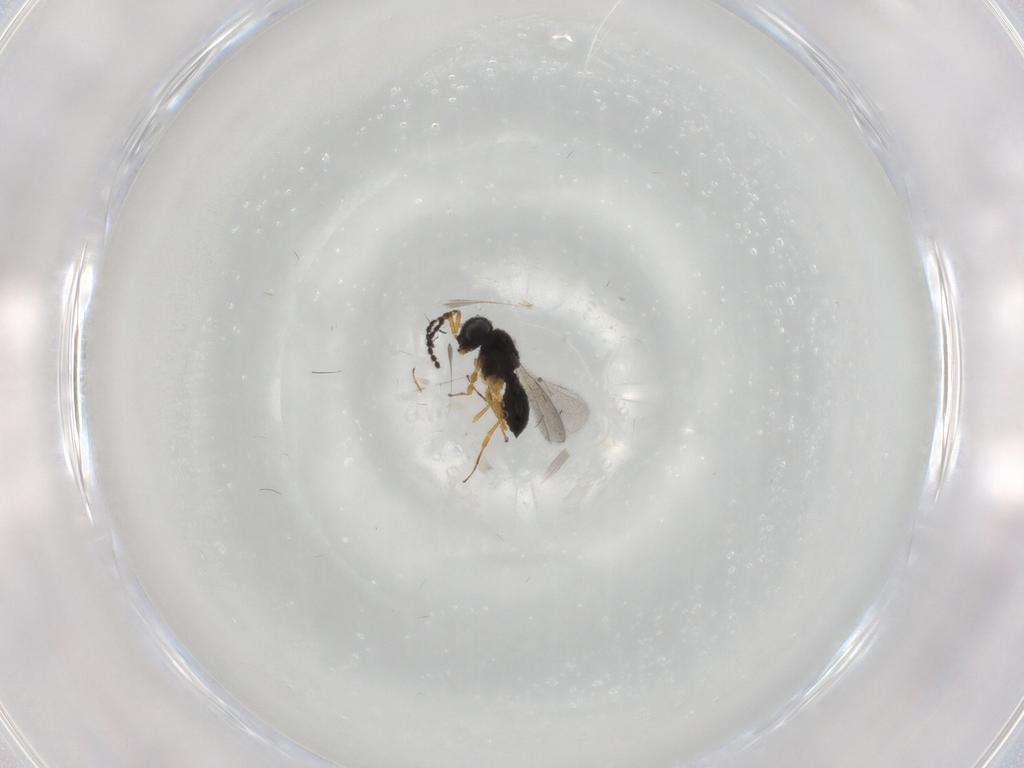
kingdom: Animalia
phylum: Arthropoda
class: Insecta
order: Hymenoptera
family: Scelionidae
